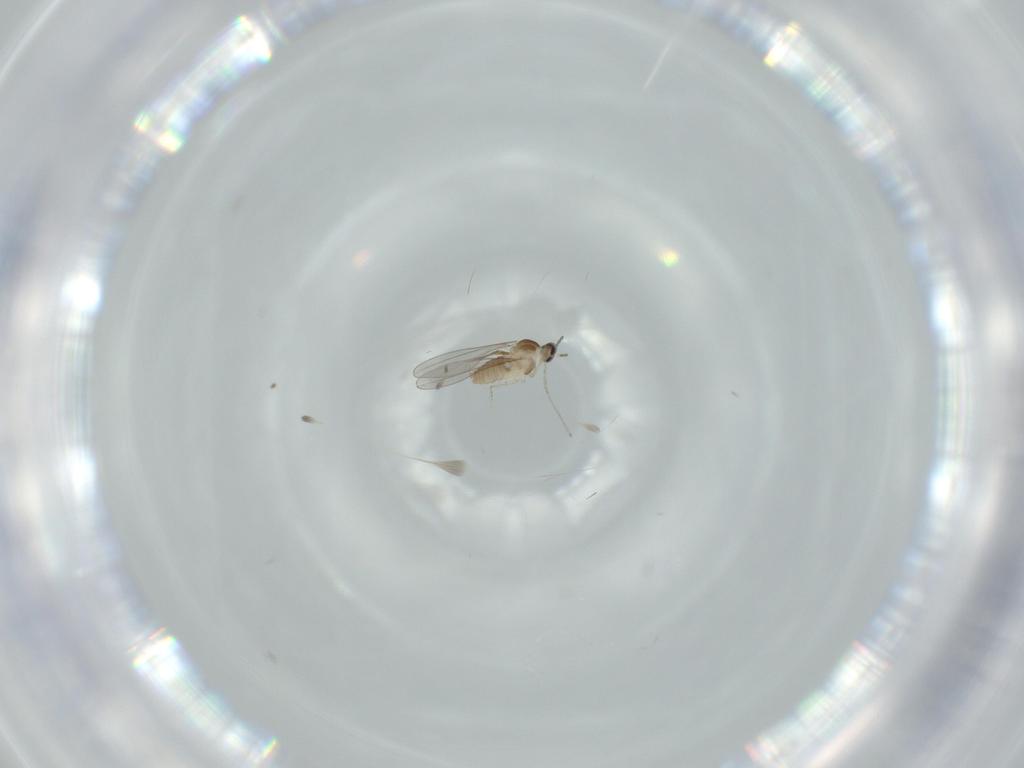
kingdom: Animalia
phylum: Arthropoda
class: Insecta
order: Diptera
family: Cecidomyiidae
